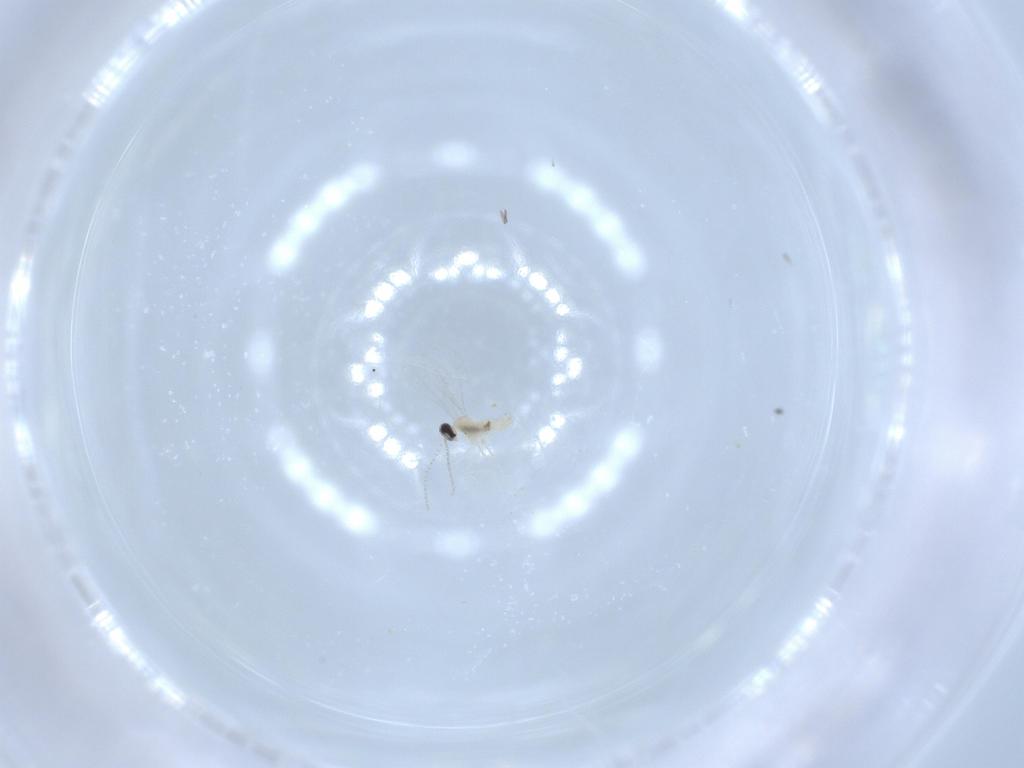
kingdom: Animalia
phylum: Arthropoda
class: Insecta
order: Diptera
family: Cecidomyiidae
